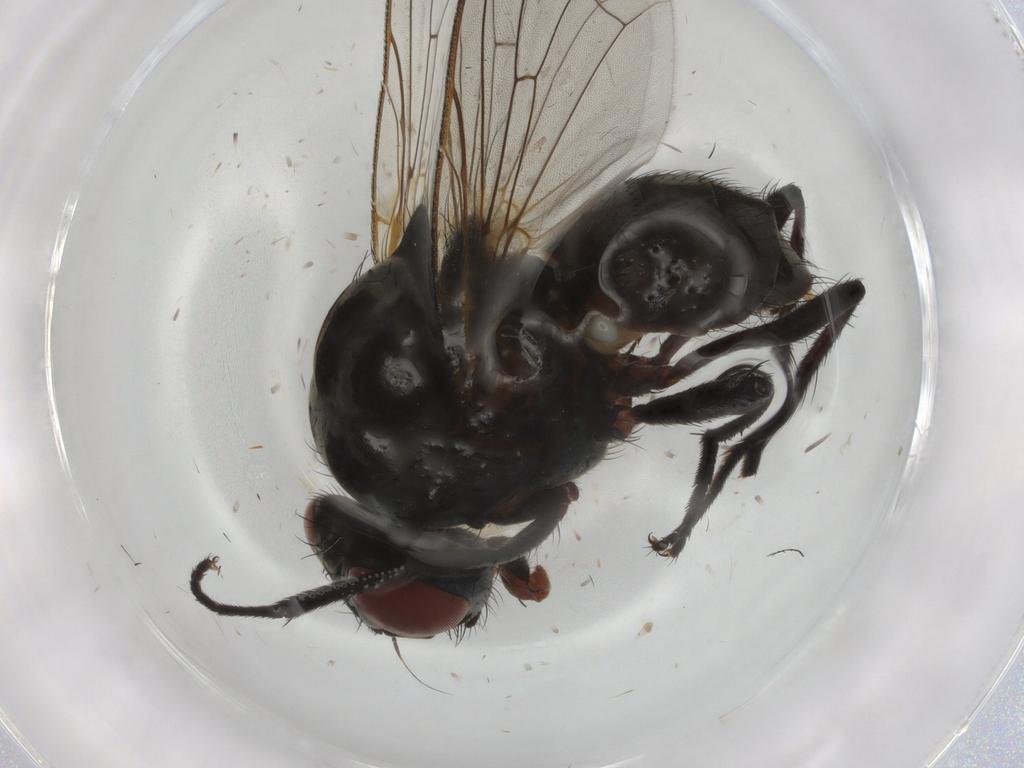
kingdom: Animalia
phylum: Arthropoda
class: Insecta
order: Diptera
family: Anthomyiidae
